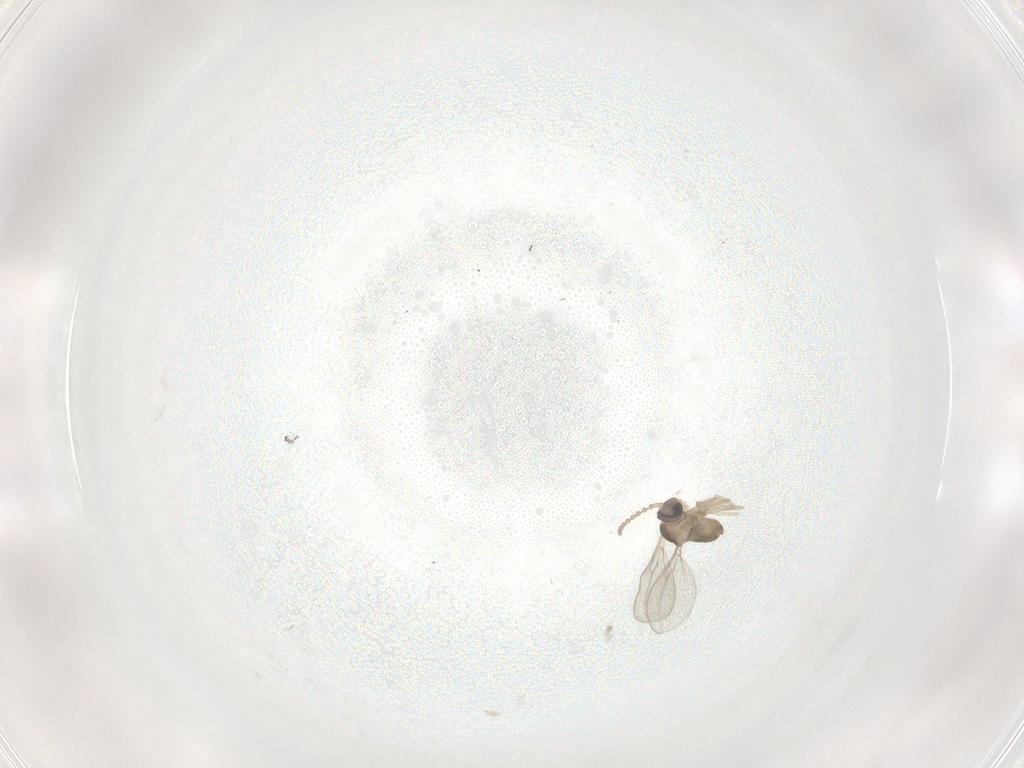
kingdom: Animalia
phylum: Arthropoda
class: Insecta
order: Diptera
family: Cecidomyiidae
